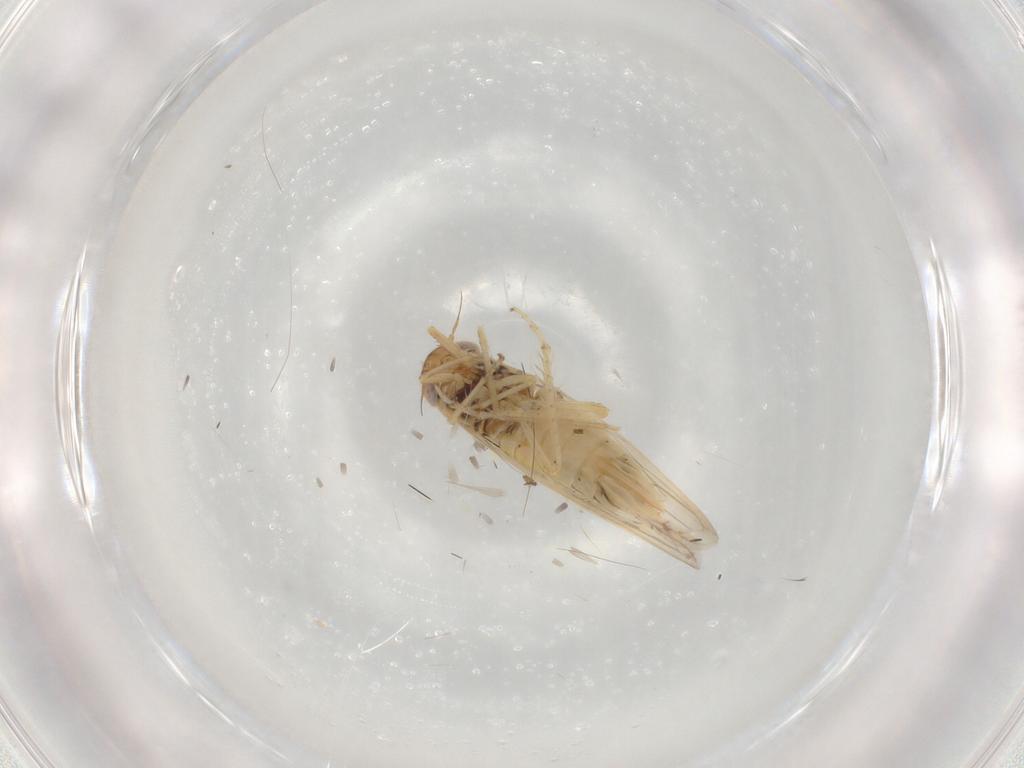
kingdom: Animalia
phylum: Arthropoda
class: Insecta
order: Hemiptera
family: Cicadellidae
